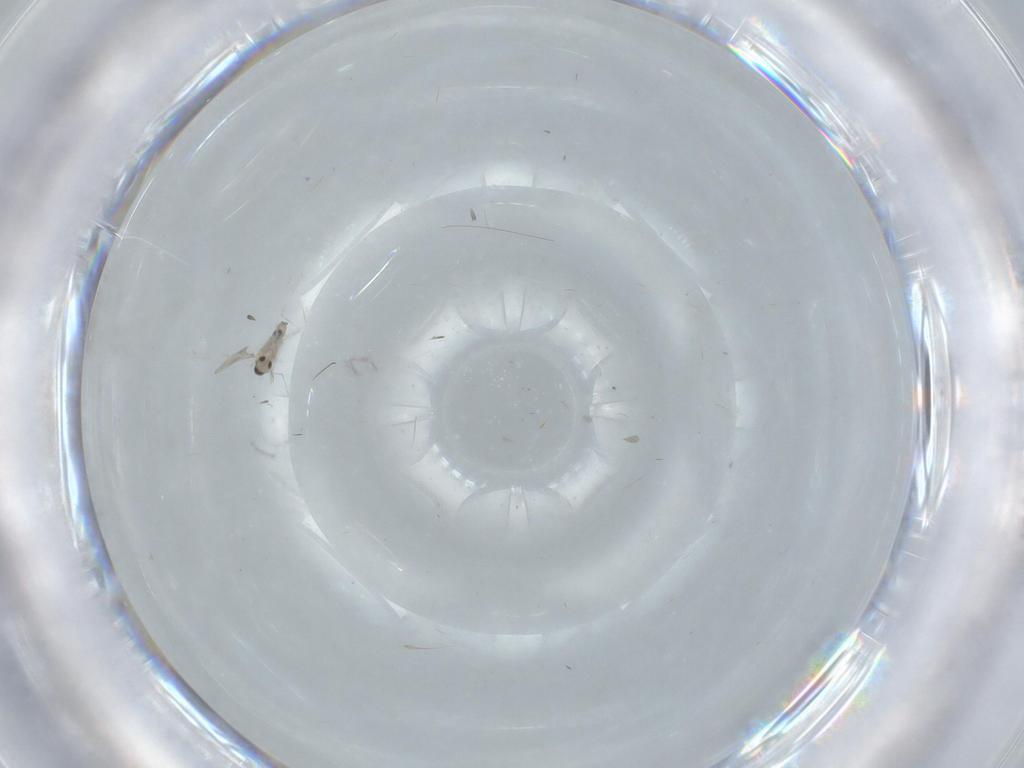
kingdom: Animalia
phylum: Arthropoda
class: Insecta
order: Diptera
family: Ceratopogonidae
